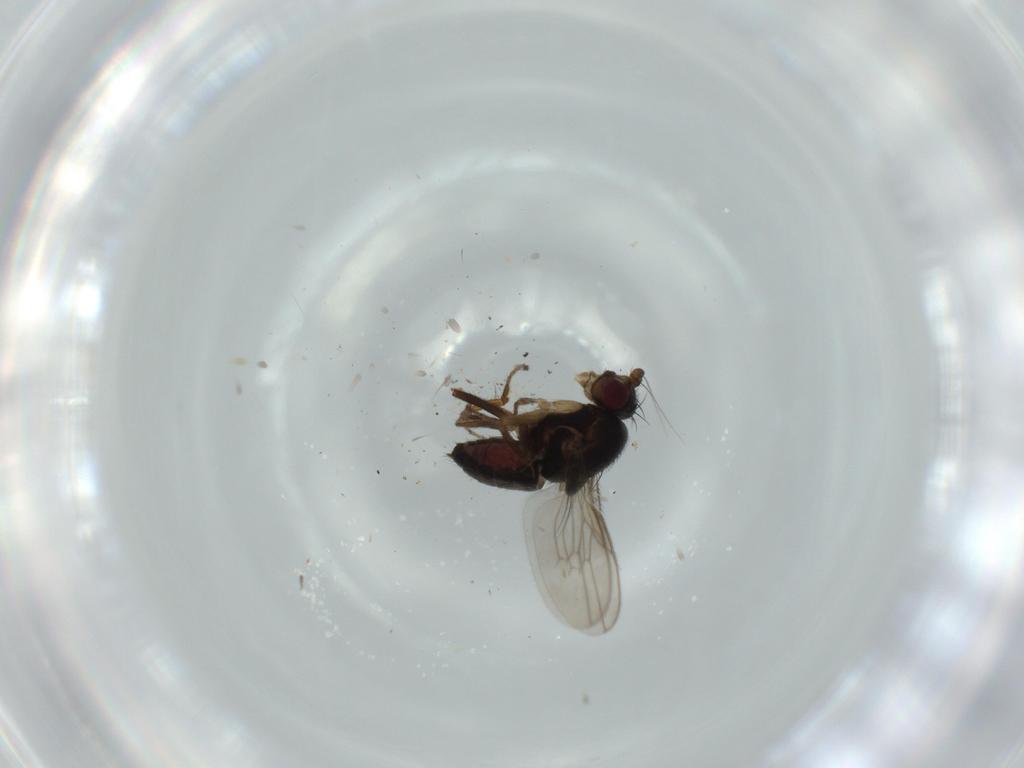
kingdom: Animalia
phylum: Arthropoda
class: Insecta
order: Diptera
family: Sphaeroceridae
